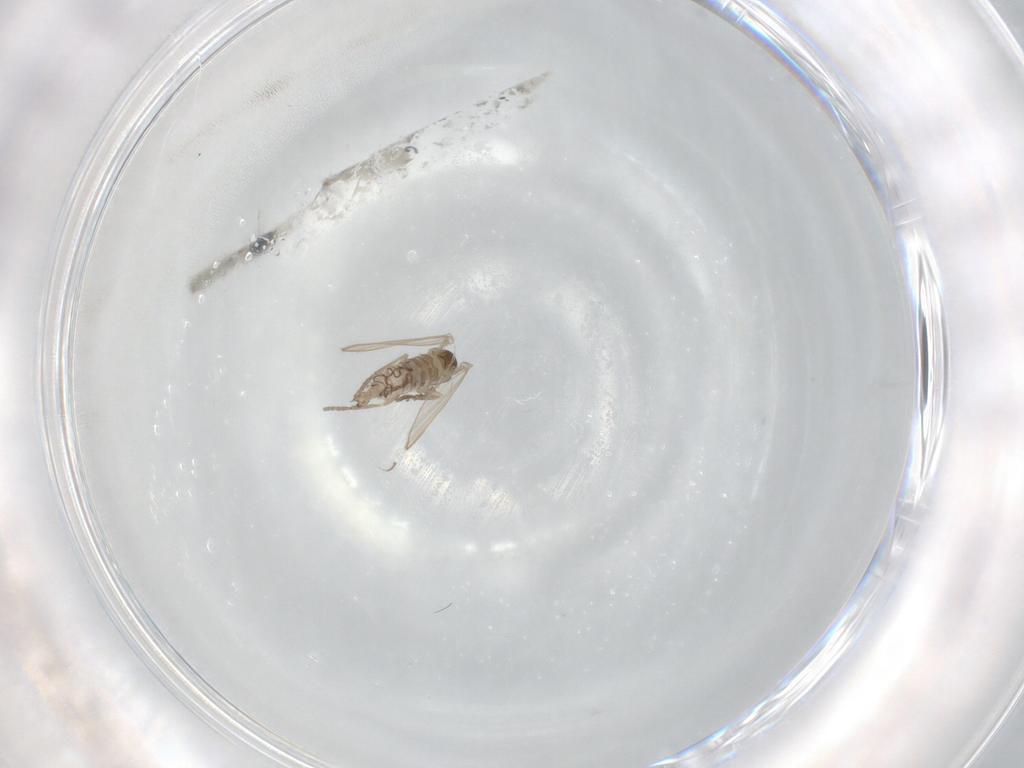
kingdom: Animalia
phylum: Arthropoda
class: Insecta
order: Diptera
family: Psychodidae
